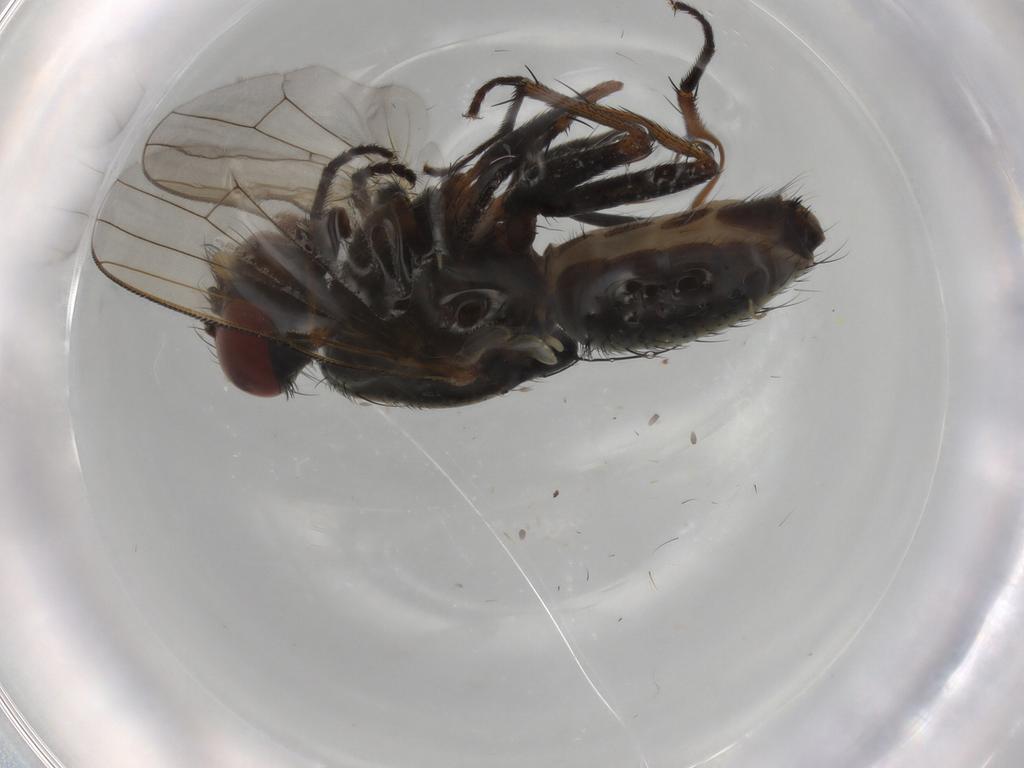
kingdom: Animalia
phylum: Arthropoda
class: Insecta
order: Diptera
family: Muscidae
